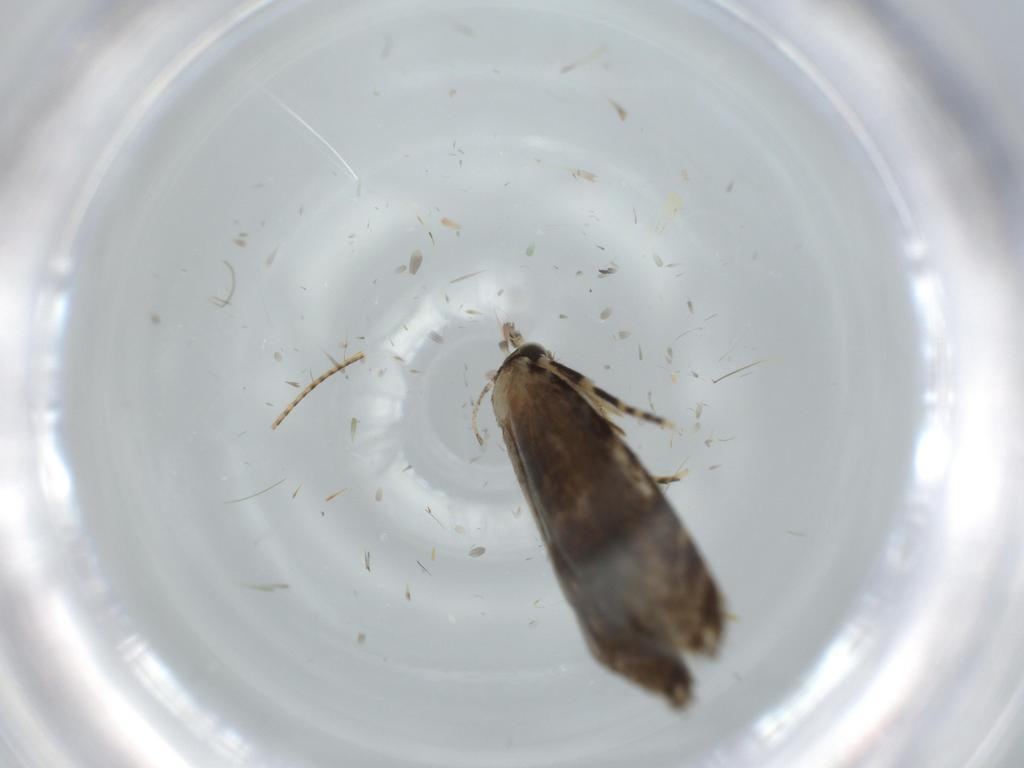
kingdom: Animalia
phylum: Arthropoda
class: Insecta
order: Lepidoptera
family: Tineidae
